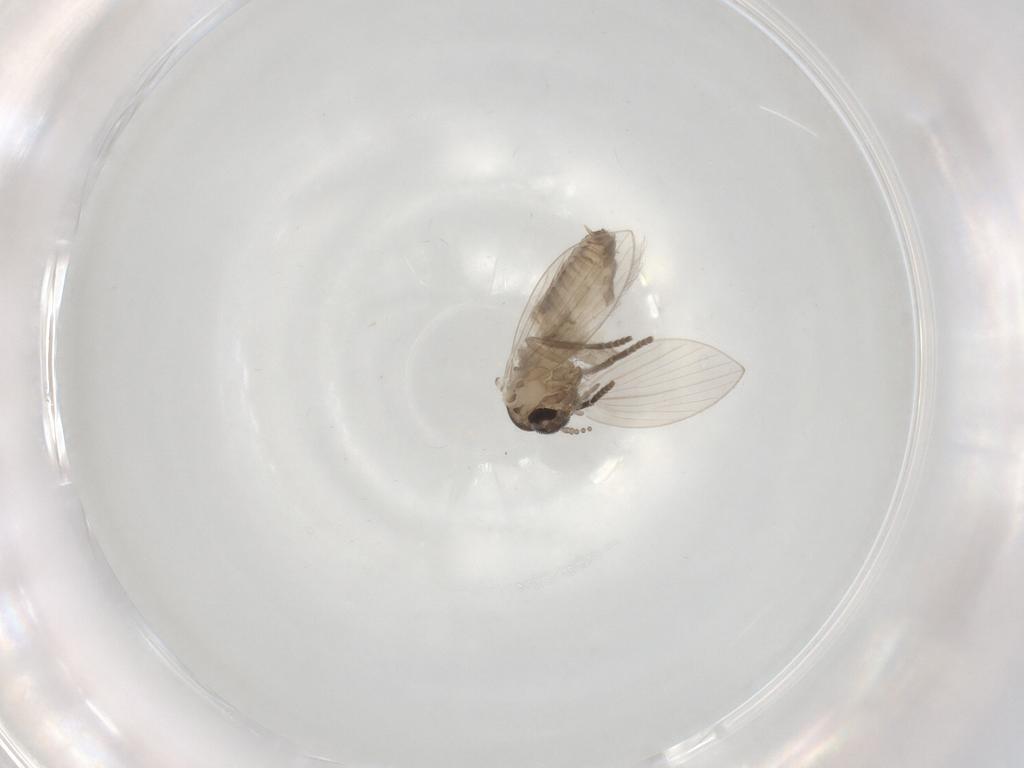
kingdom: Animalia
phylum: Arthropoda
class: Insecta
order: Diptera
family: Psychodidae
